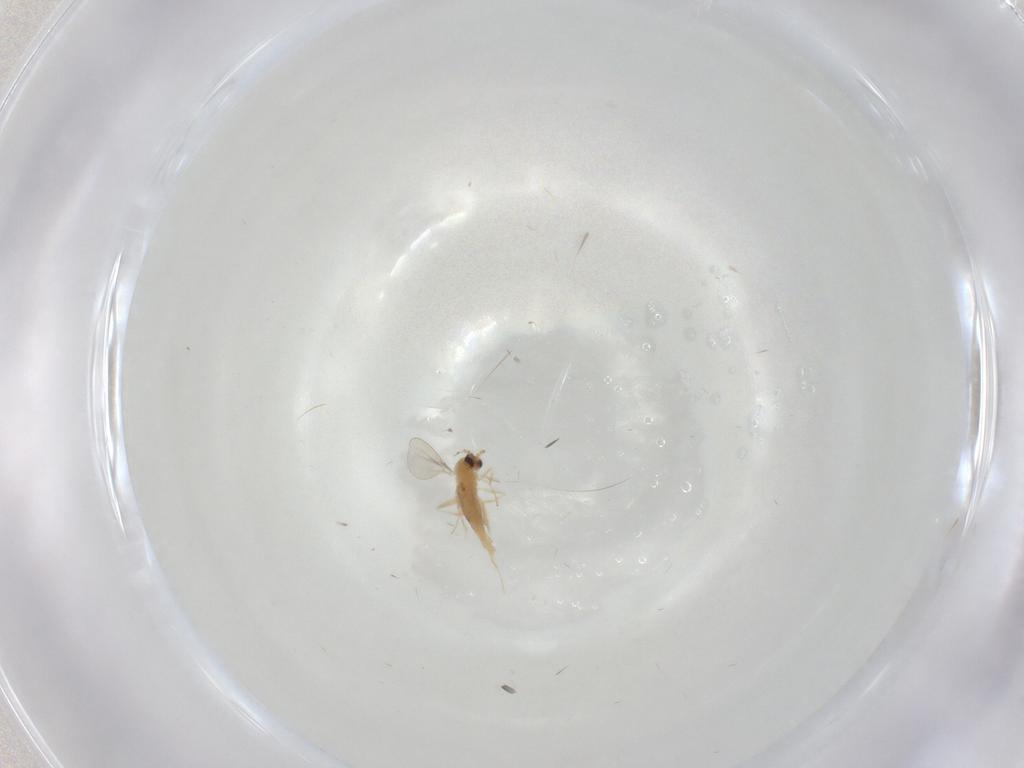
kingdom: Animalia
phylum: Arthropoda
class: Insecta
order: Diptera
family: Cecidomyiidae
